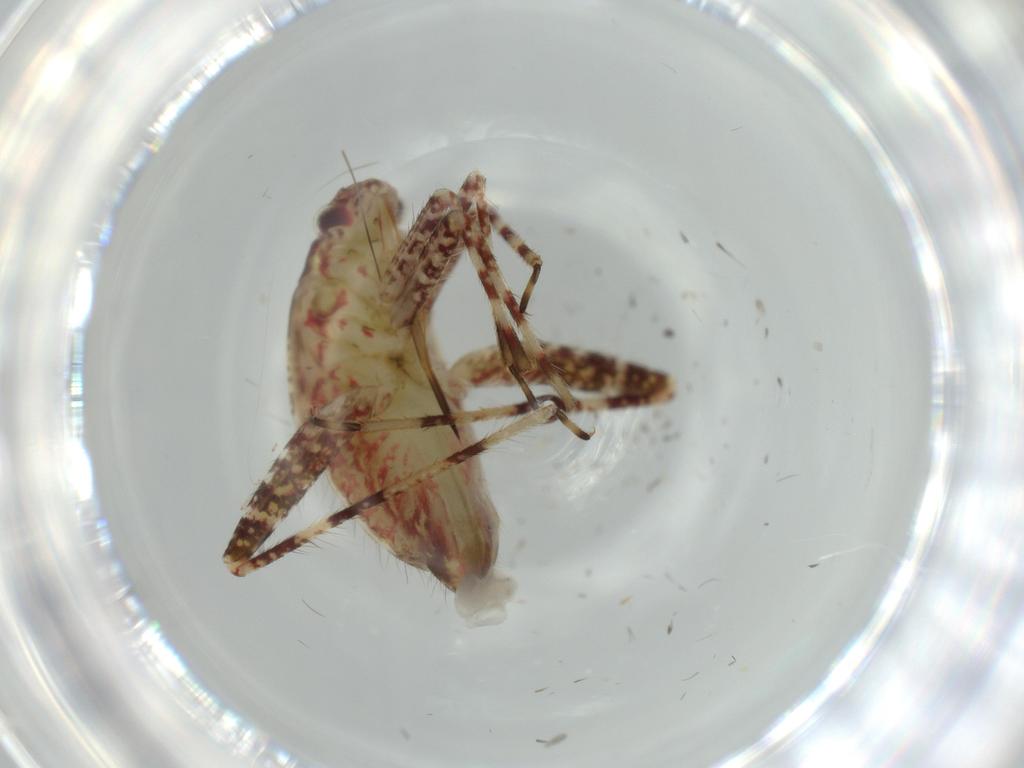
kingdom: Animalia
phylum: Arthropoda
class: Insecta
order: Hemiptera
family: Miridae
